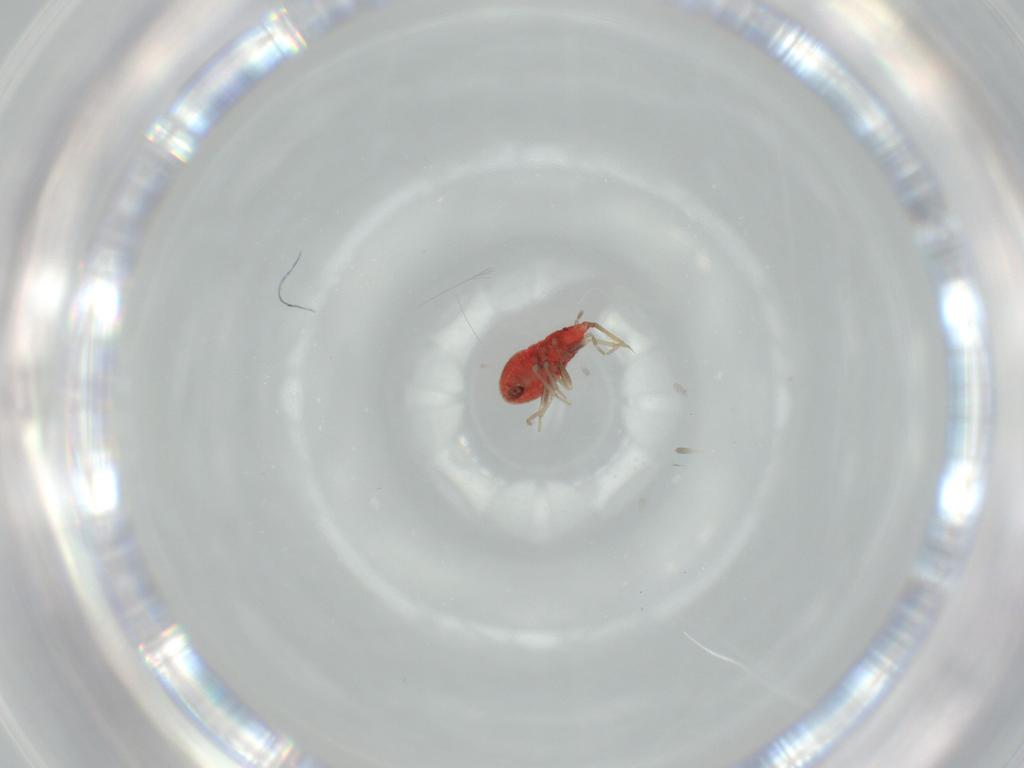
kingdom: Animalia
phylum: Arthropoda
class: Insecta
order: Hemiptera
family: Anthocoridae
